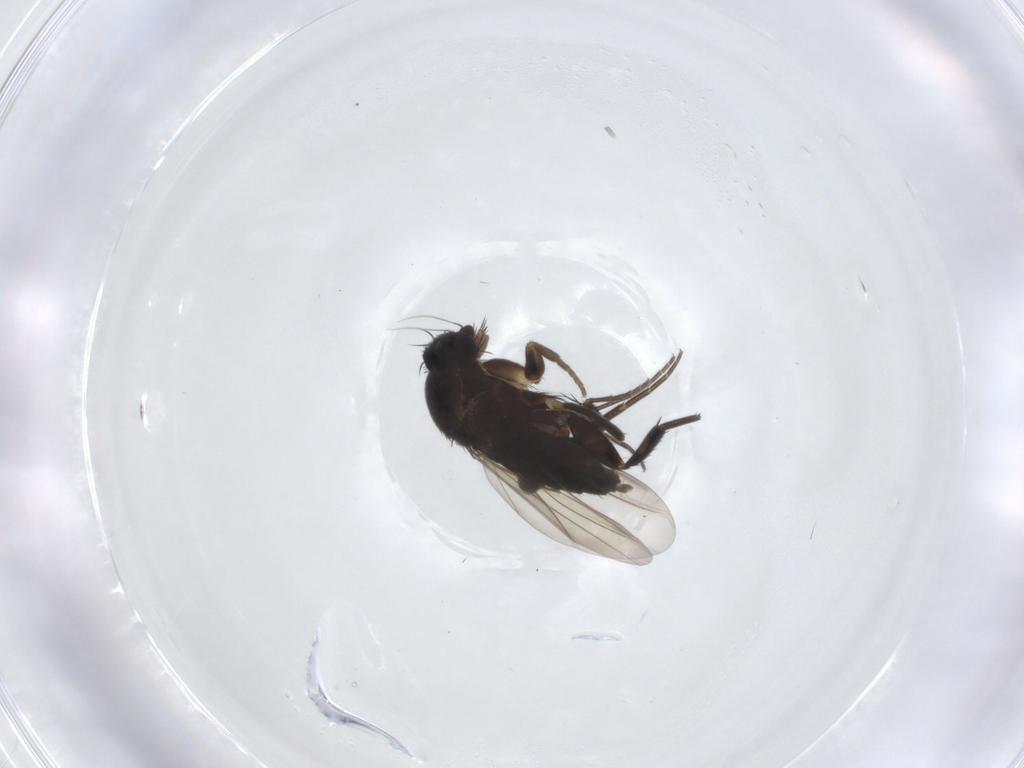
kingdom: Animalia
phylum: Arthropoda
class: Insecta
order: Diptera
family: Phoridae
